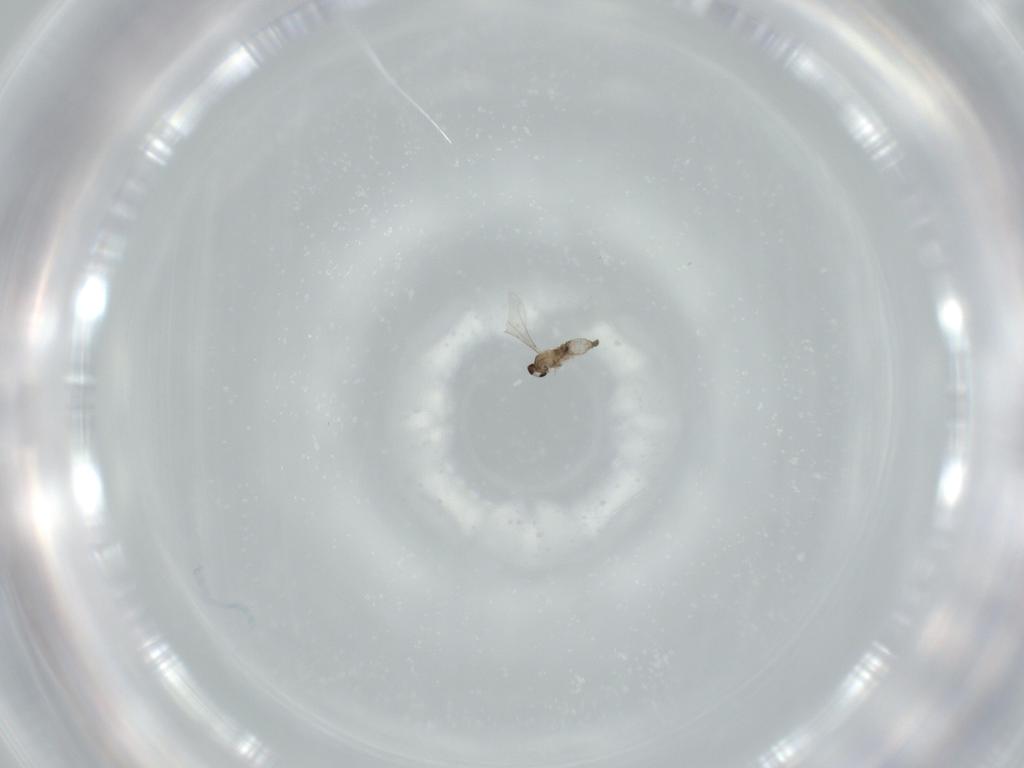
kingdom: Animalia
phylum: Arthropoda
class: Insecta
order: Diptera
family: Cecidomyiidae
